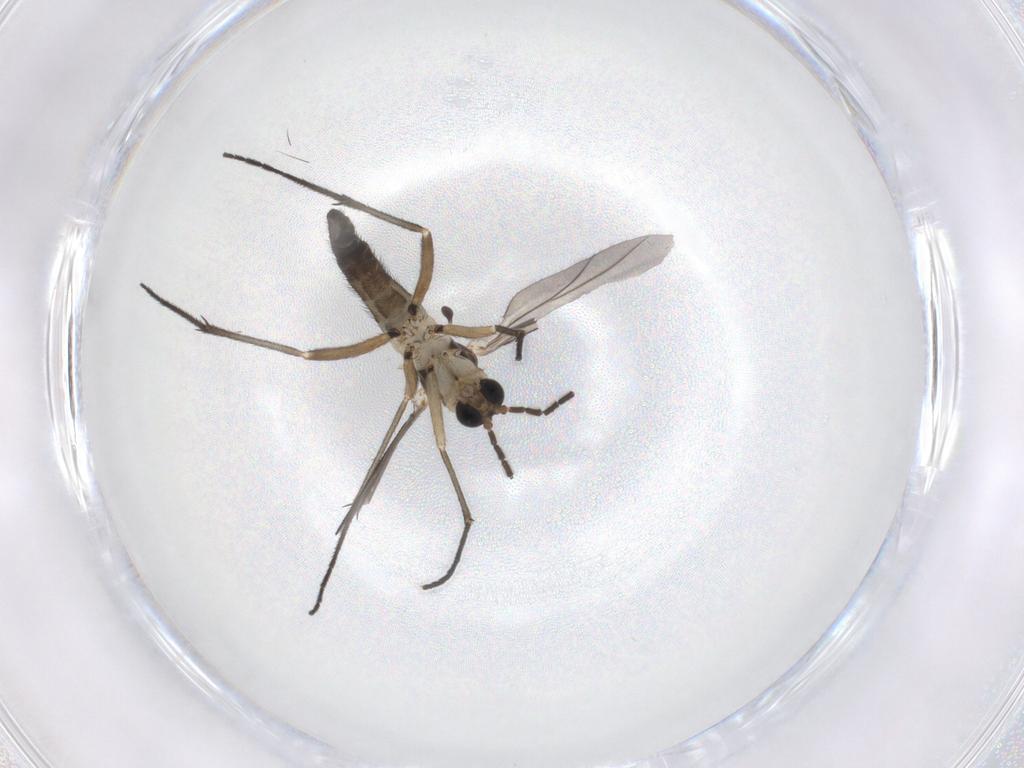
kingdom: Animalia
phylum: Arthropoda
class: Insecta
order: Diptera
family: Sciaridae
